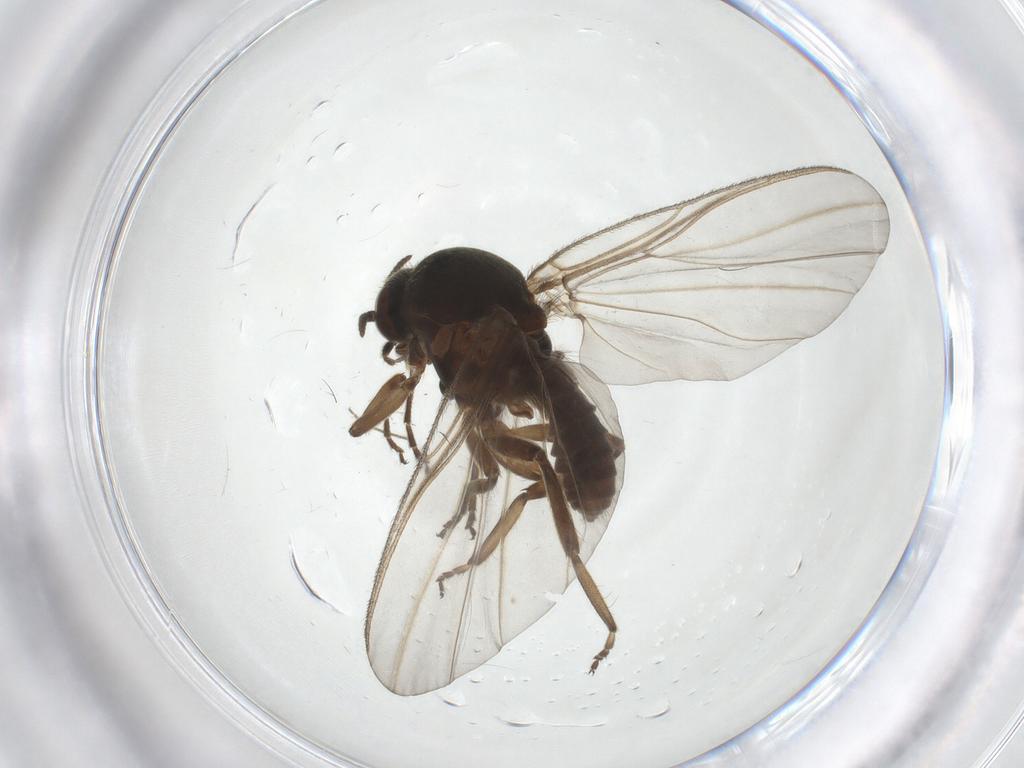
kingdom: Animalia
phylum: Arthropoda
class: Insecta
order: Diptera
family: Simuliidae
